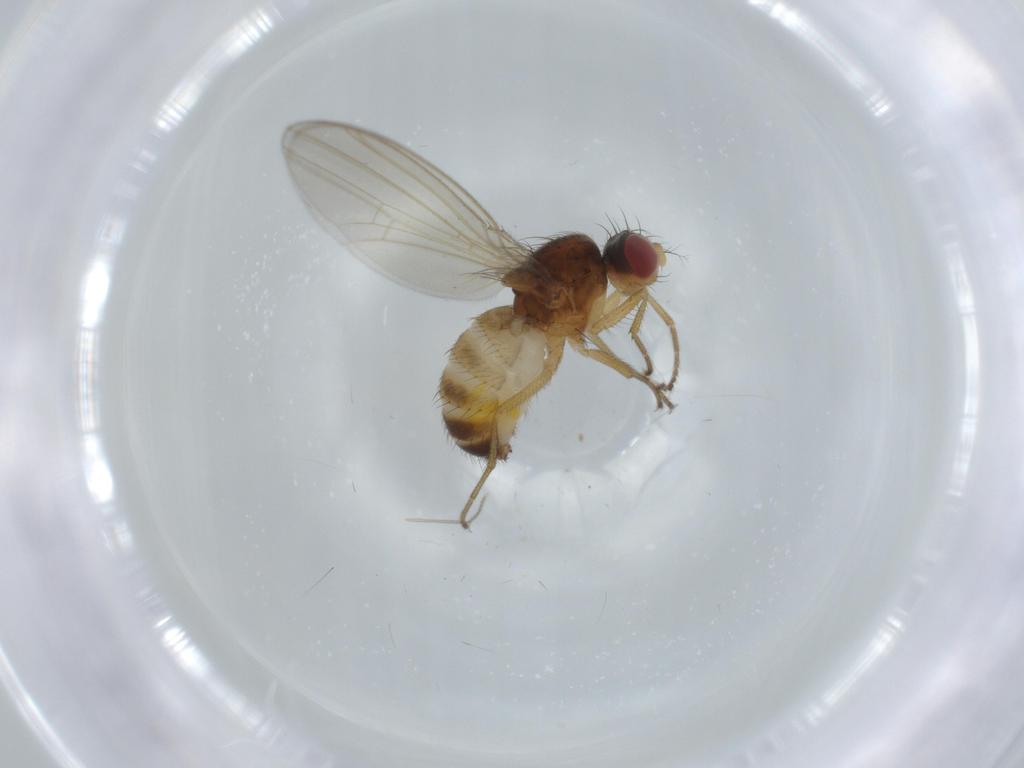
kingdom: Animalia
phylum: Arthropoda
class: Insecta
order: Diptera
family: Drosophilidae
